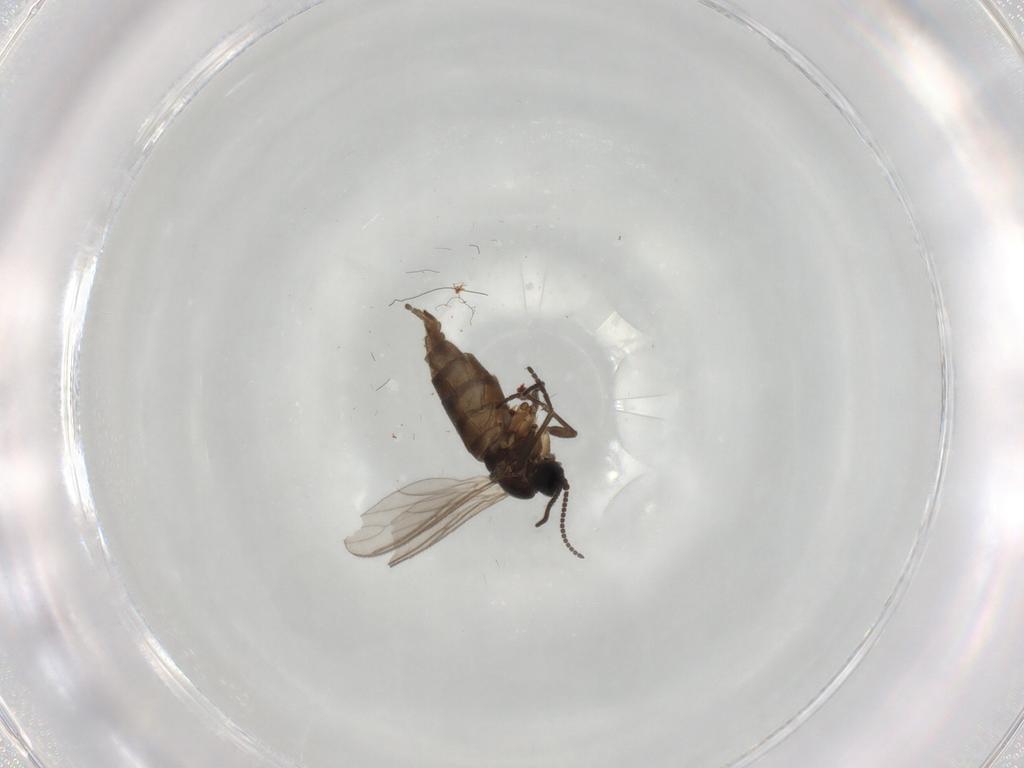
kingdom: Animalia
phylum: Arthropoda
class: Insecta
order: Diptera
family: Sciaridae
